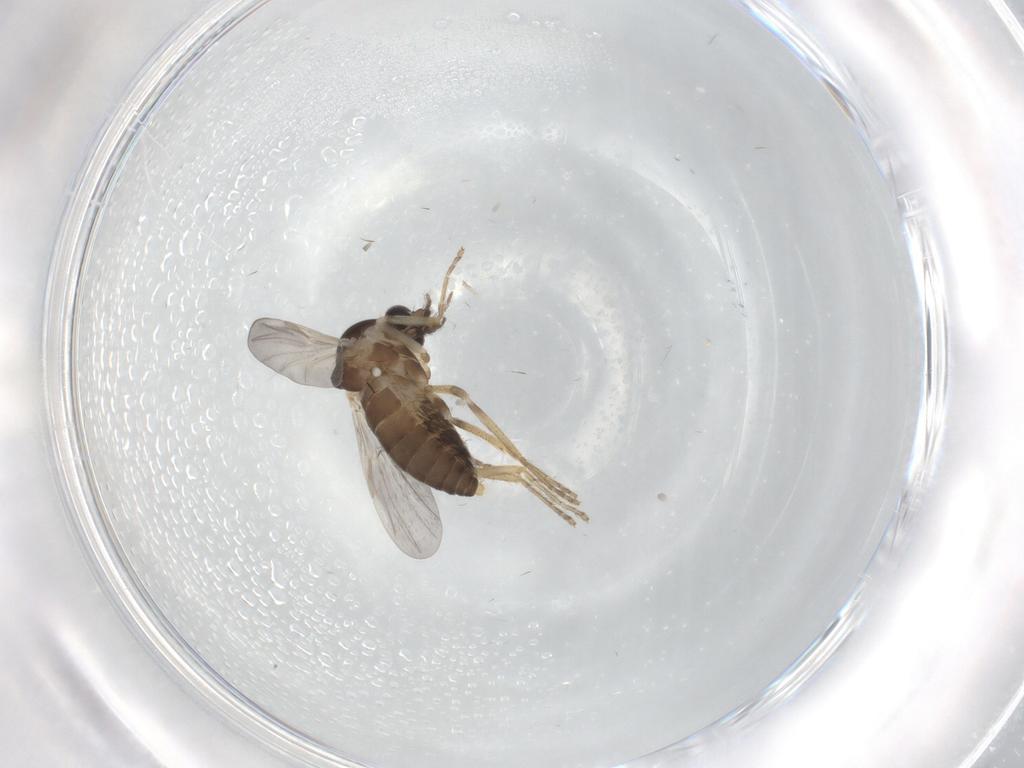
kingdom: Animalia
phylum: Arthropoda
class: Insecta
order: Diptera
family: Ceratopogonidae
